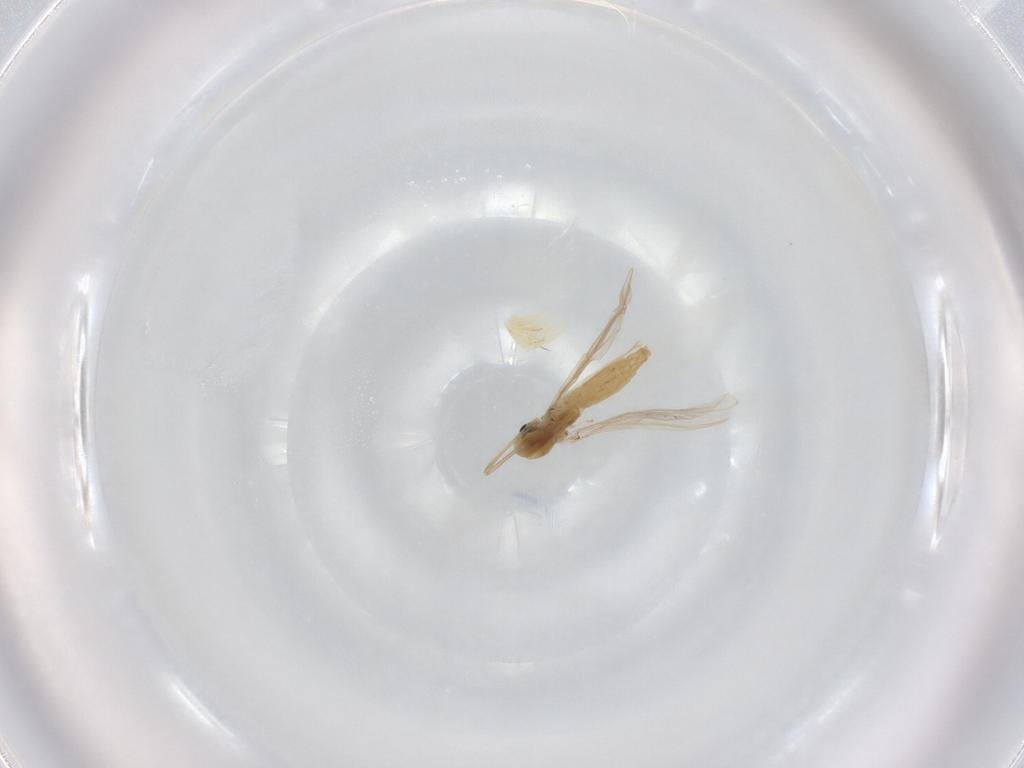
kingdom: Animalia
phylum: Arthropoda
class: Insecta
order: Diptera
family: Chironomidae
